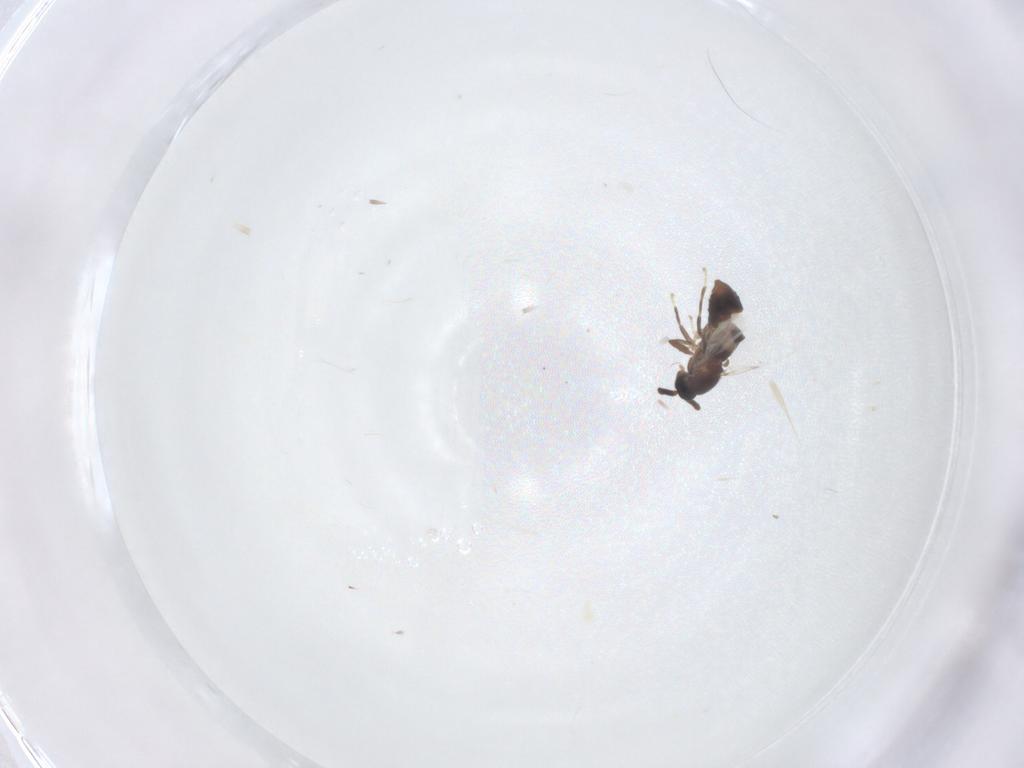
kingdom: Animalia
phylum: Arthropoda
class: Insecta
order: Diptera
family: Scatopsidae
